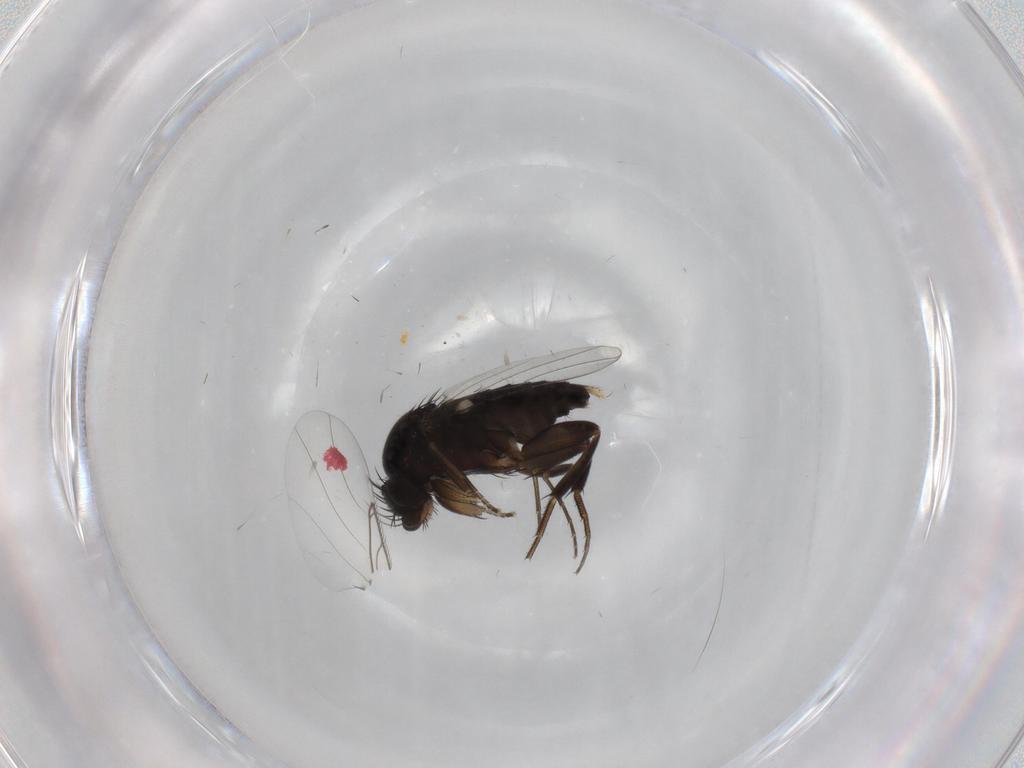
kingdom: Animalia
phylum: Arthropoda
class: Insecta
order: Diptera
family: Phoridae
